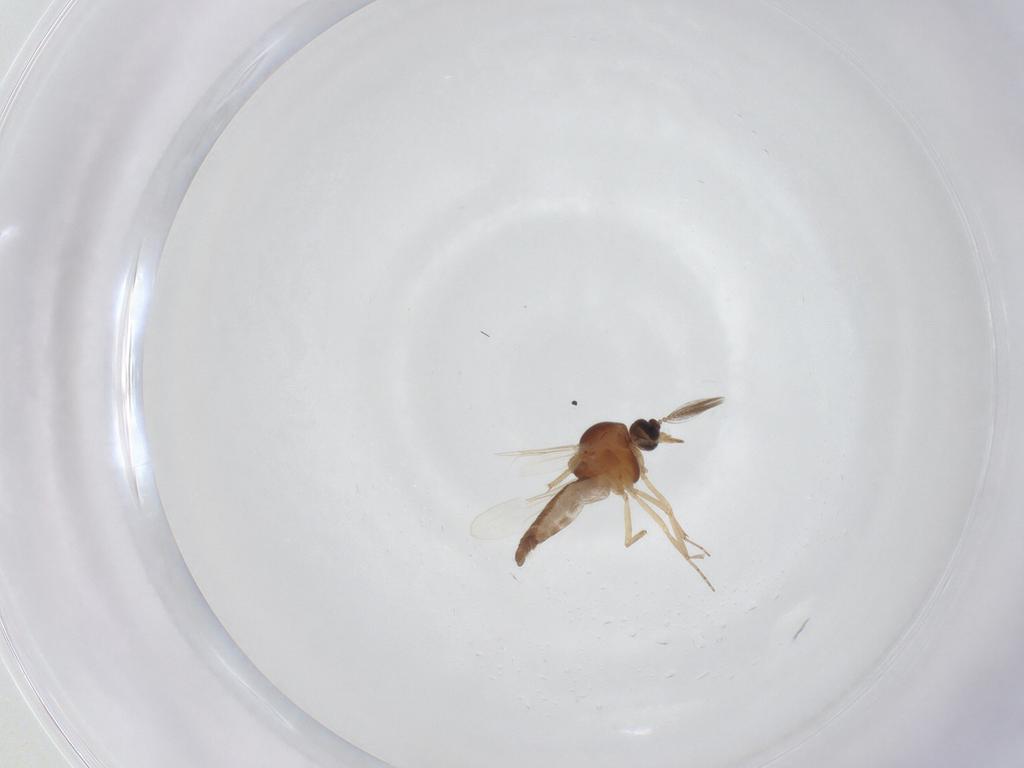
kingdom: Animalia
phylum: Arthropoda
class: Insecta
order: Diptera
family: Ceratopogonidae
